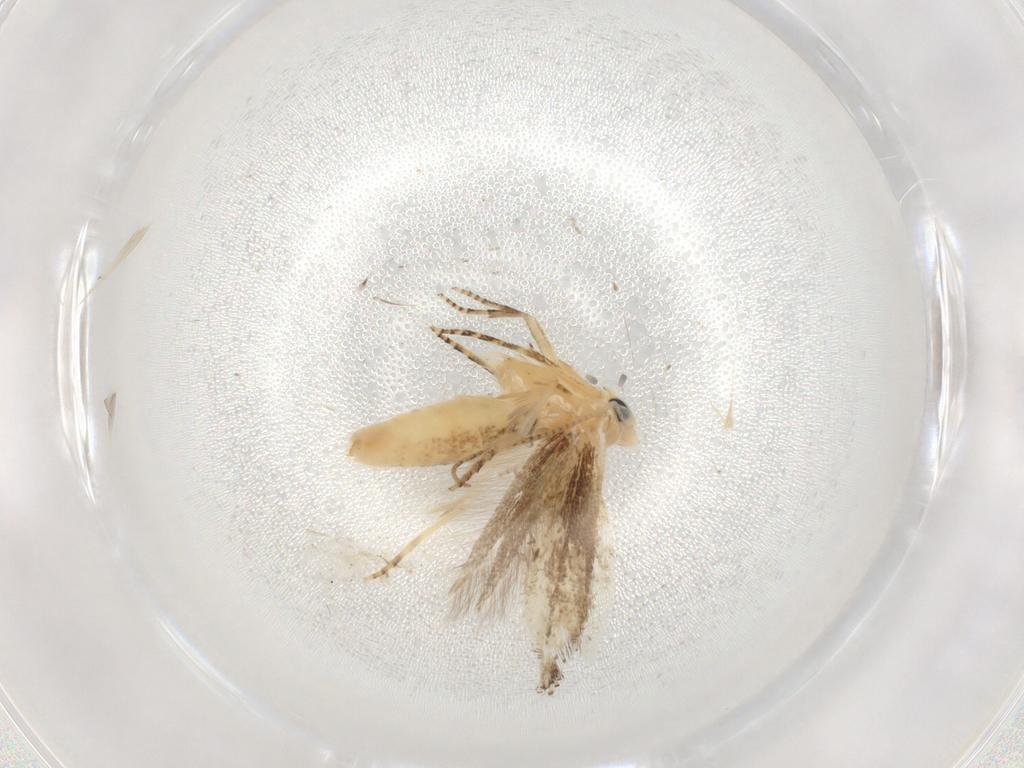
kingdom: Animalia
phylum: Arthropoda
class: Insecta
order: Lepidoptera
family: Bucculatricidae
